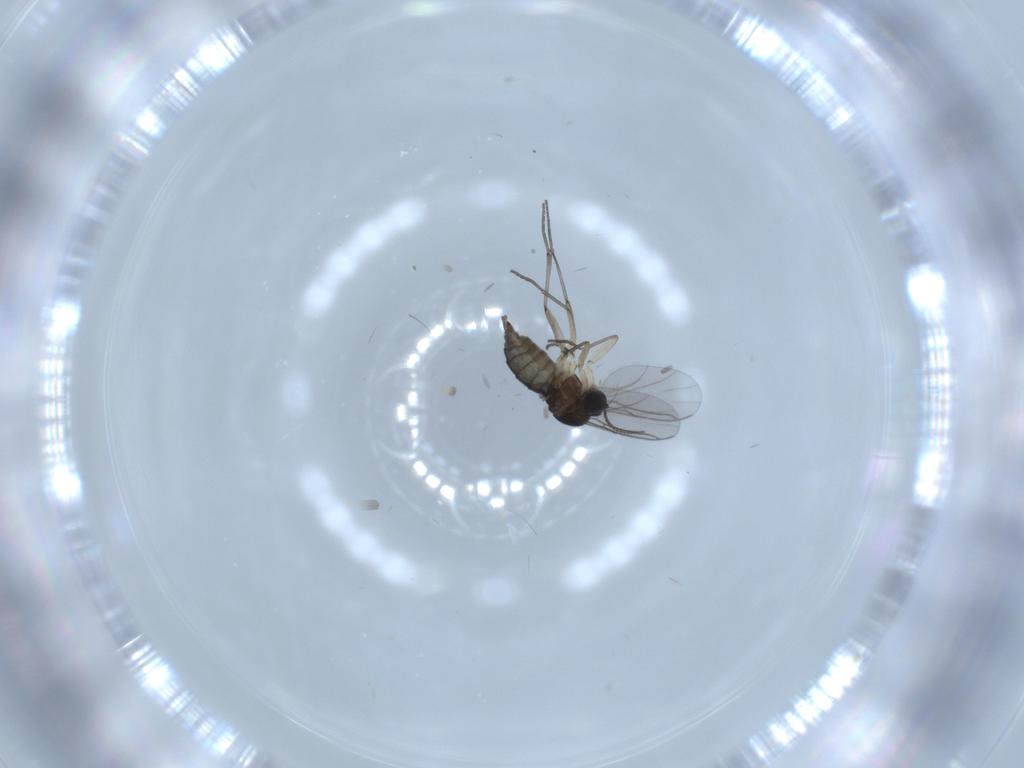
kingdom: Animalia
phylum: Arthropoda
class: Insecta
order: Diptera
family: Sciaridae
